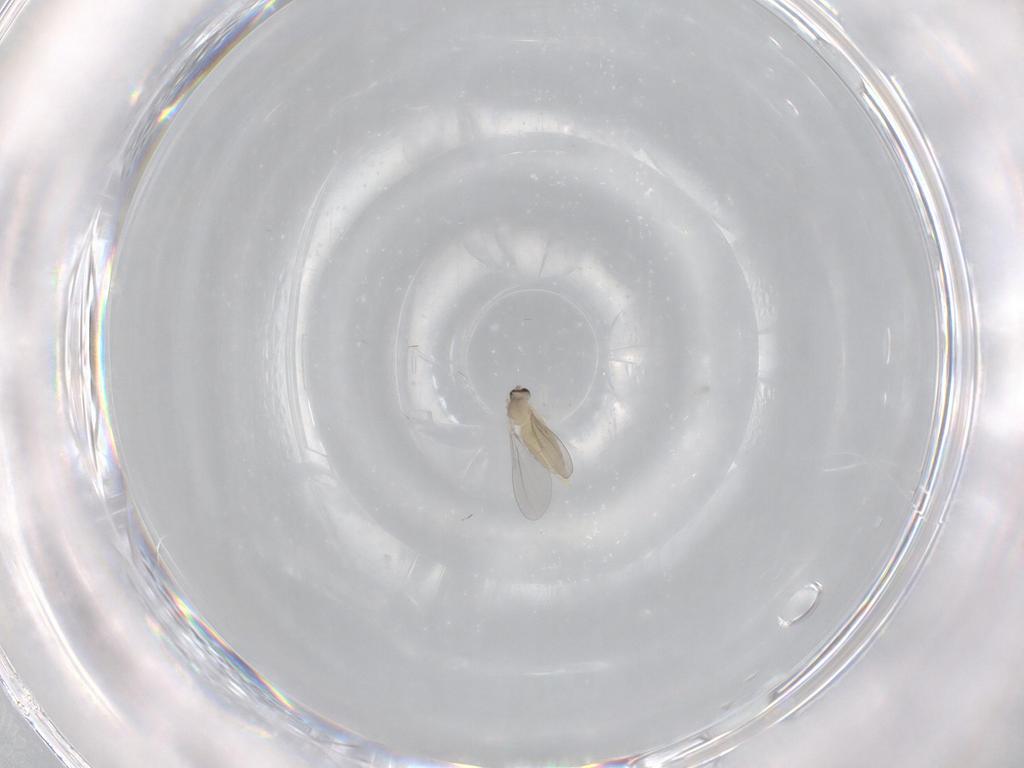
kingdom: Animalia
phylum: Arthropoda
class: Insecta
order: Diptera
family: Cecidomyiidae
